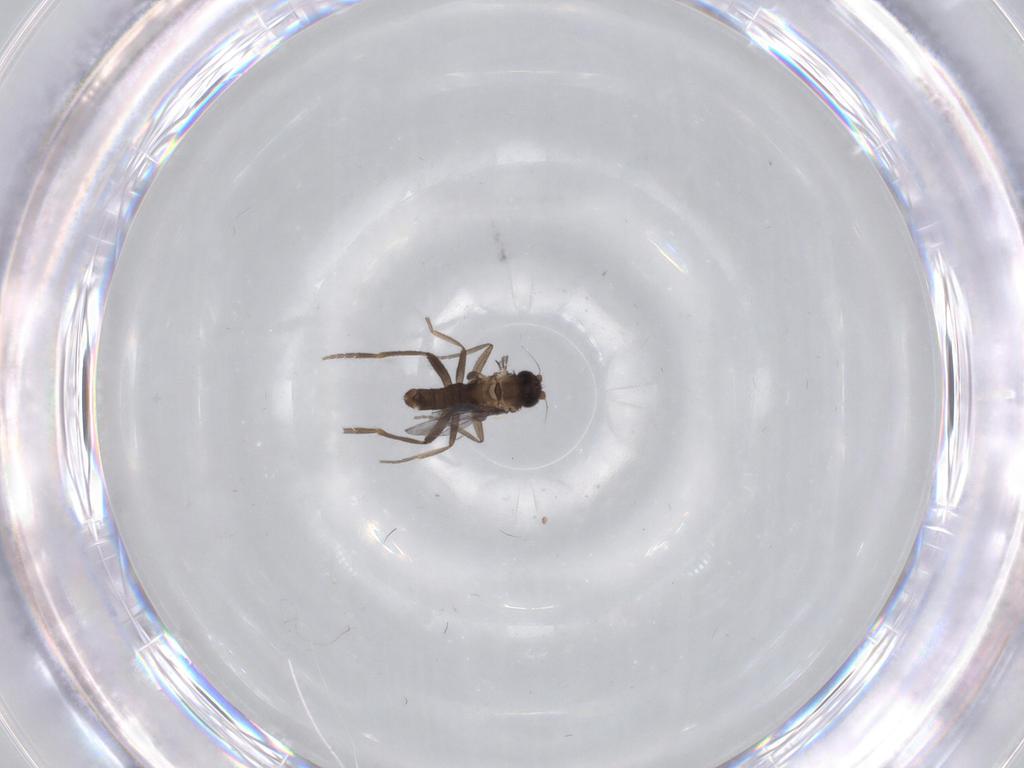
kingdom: Animalia
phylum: Arthropoda
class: Insecta
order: Diptera
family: Phoridae
